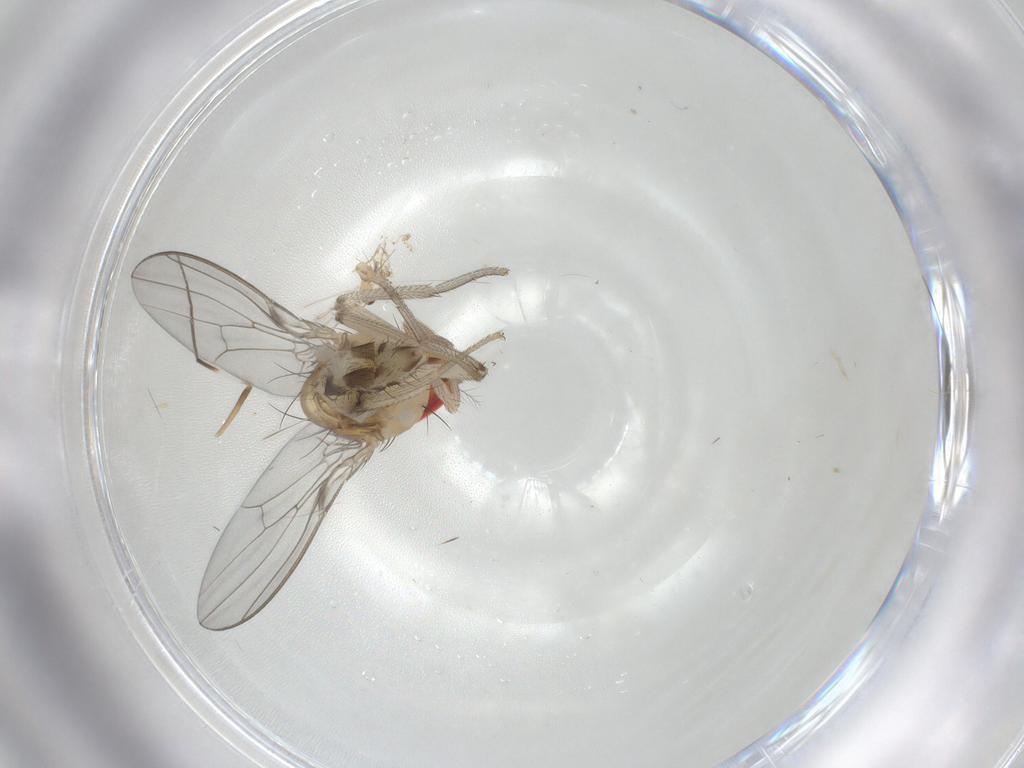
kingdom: Animalia
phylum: Arthropoda
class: Insecta
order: Diptera
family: Drosophilidae
